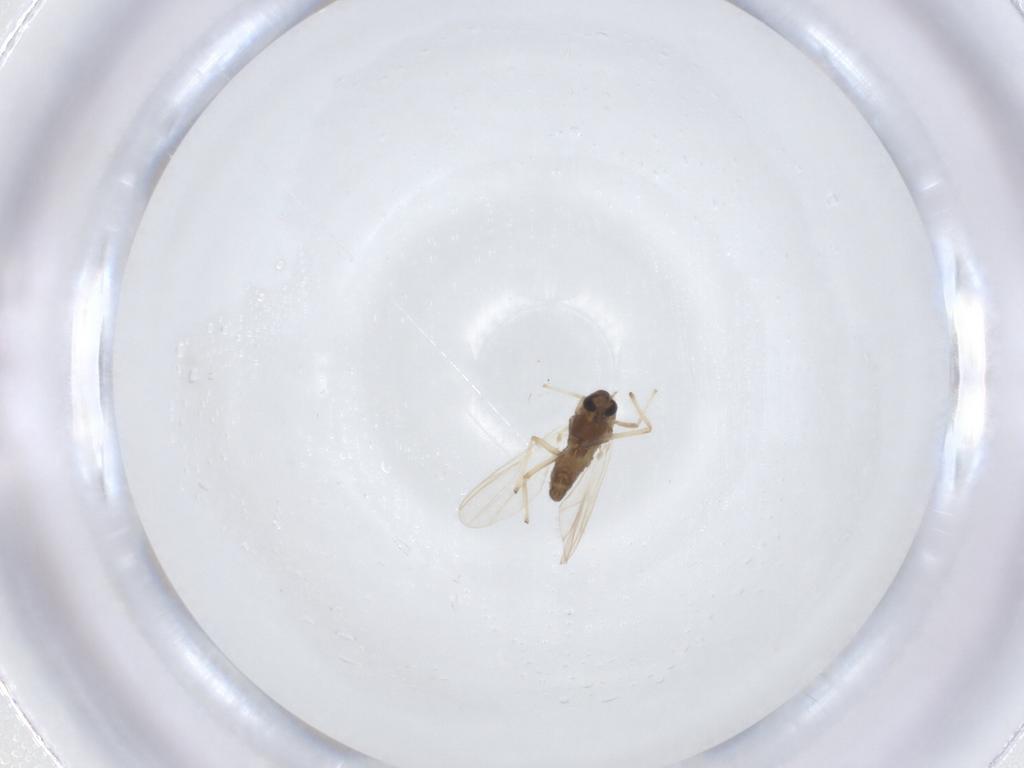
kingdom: Animalia
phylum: Arthropoda
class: Insecta
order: Diptera
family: Chironomidae
